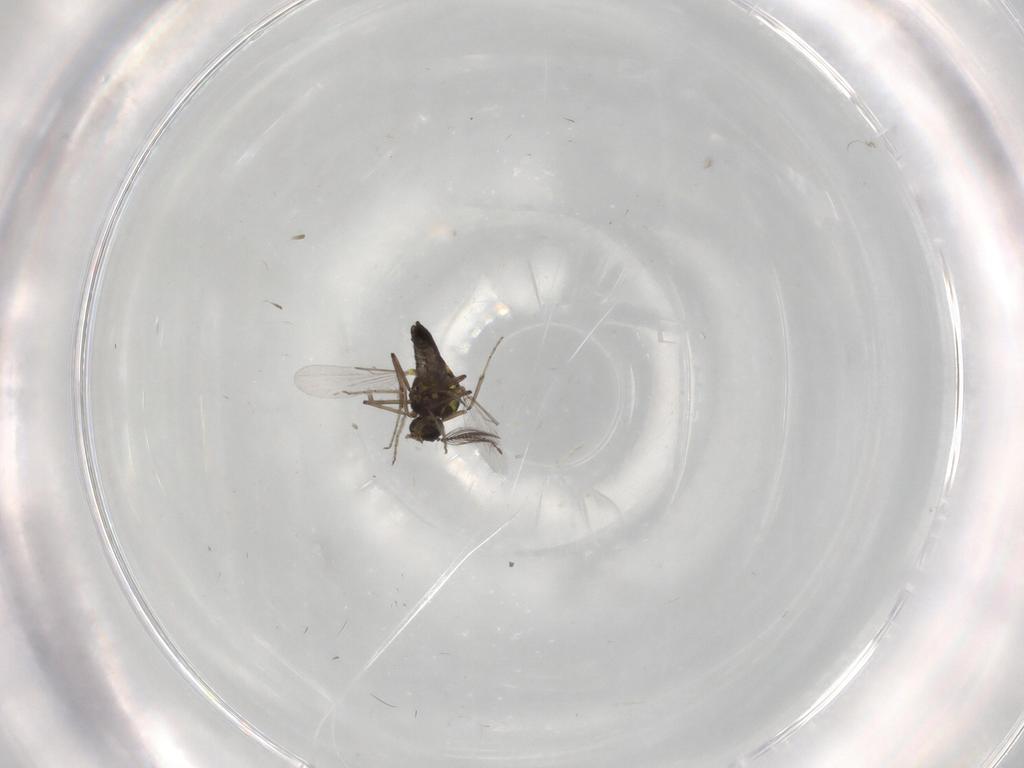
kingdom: Animalia
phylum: Arthropoda
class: Insecta
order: Diptera
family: Ceratopogonidae
